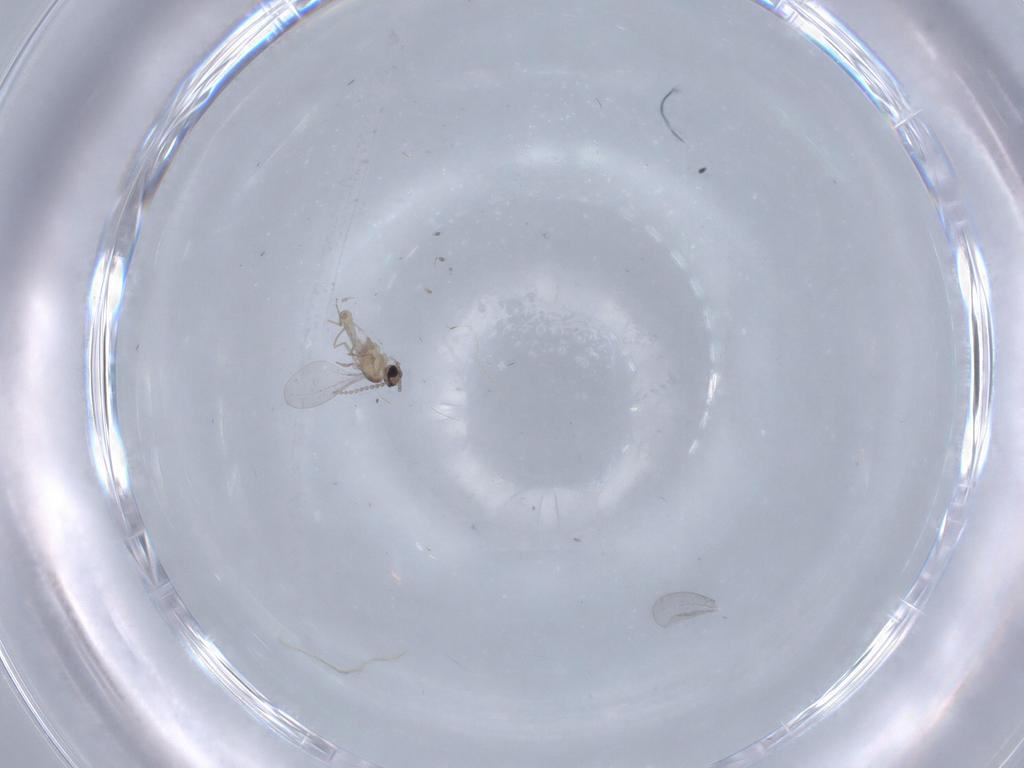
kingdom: Animalia
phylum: Arthropoda
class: Insecta
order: Diptera
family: Cecidomyiidae
